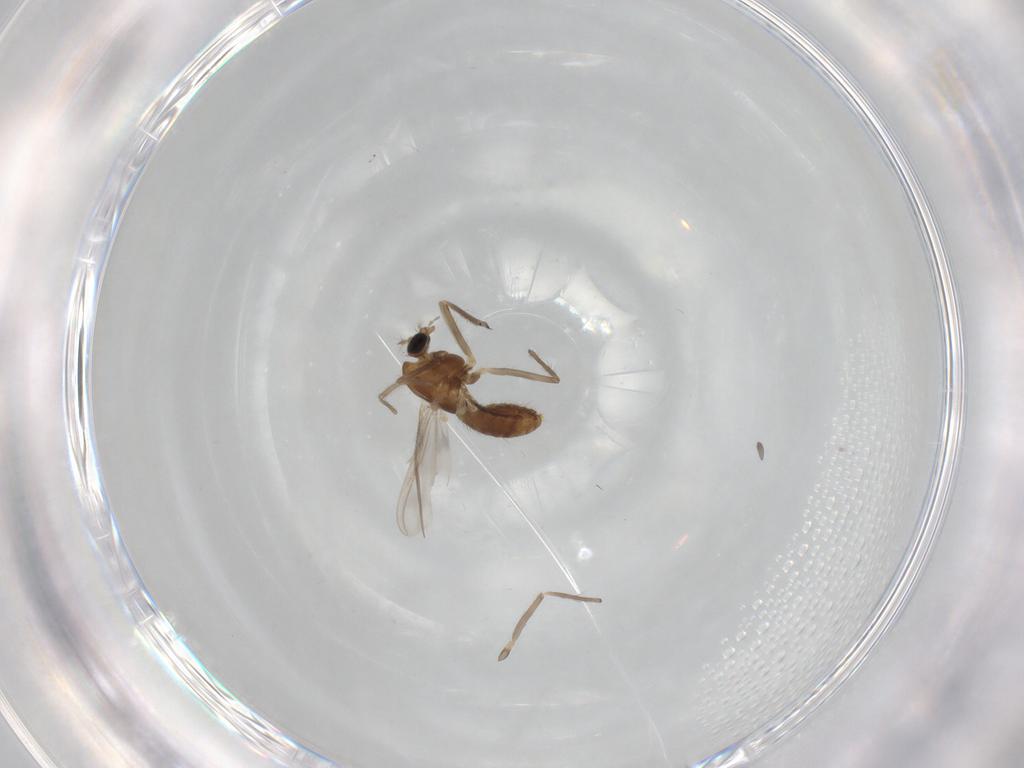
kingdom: Animalia
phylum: Arthropoda
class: Insecta
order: Diptera
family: Chironomidae
